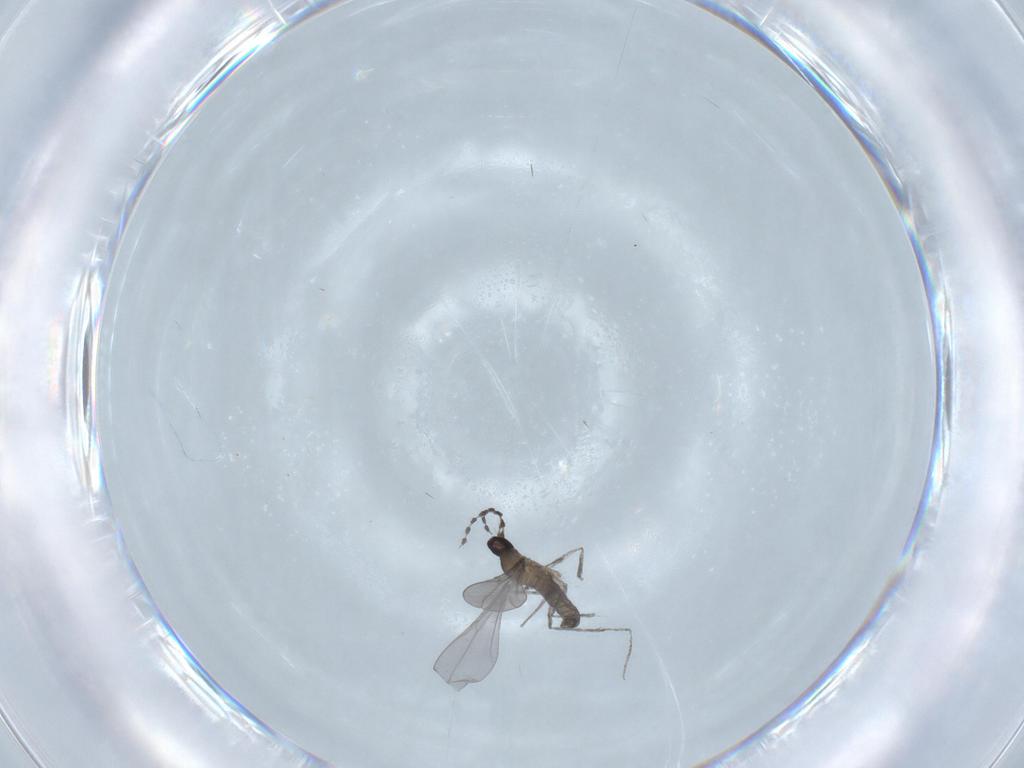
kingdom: Animalia
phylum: Arthropoda
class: Insecta
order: Diptera
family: Cecidomyiidae
